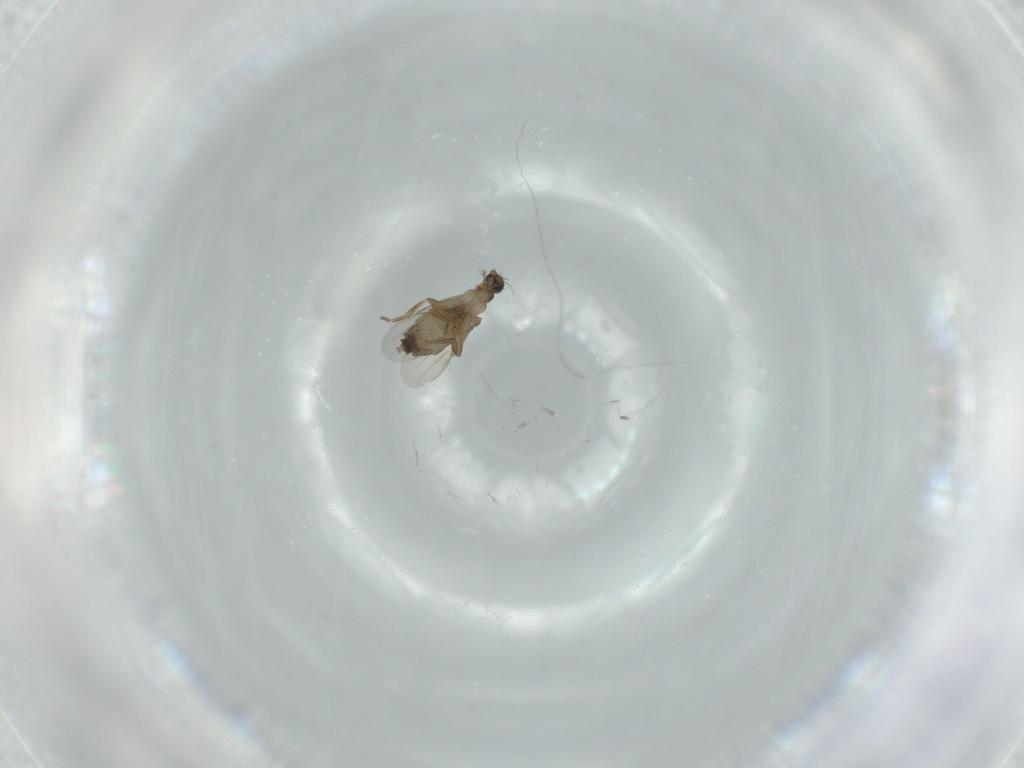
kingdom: Animalia
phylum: Arthropoda
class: Insecta
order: Diptera
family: Phoridae
